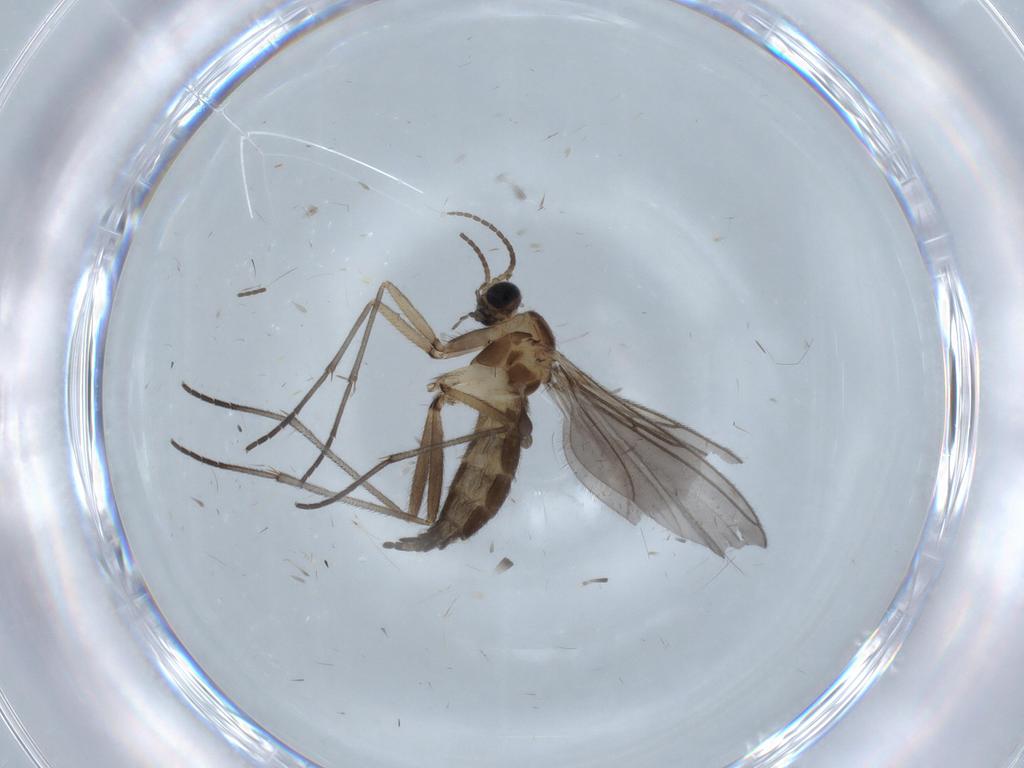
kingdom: Animalia
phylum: Arthropoda
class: Insecta
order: Diptera
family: Sciaridae
